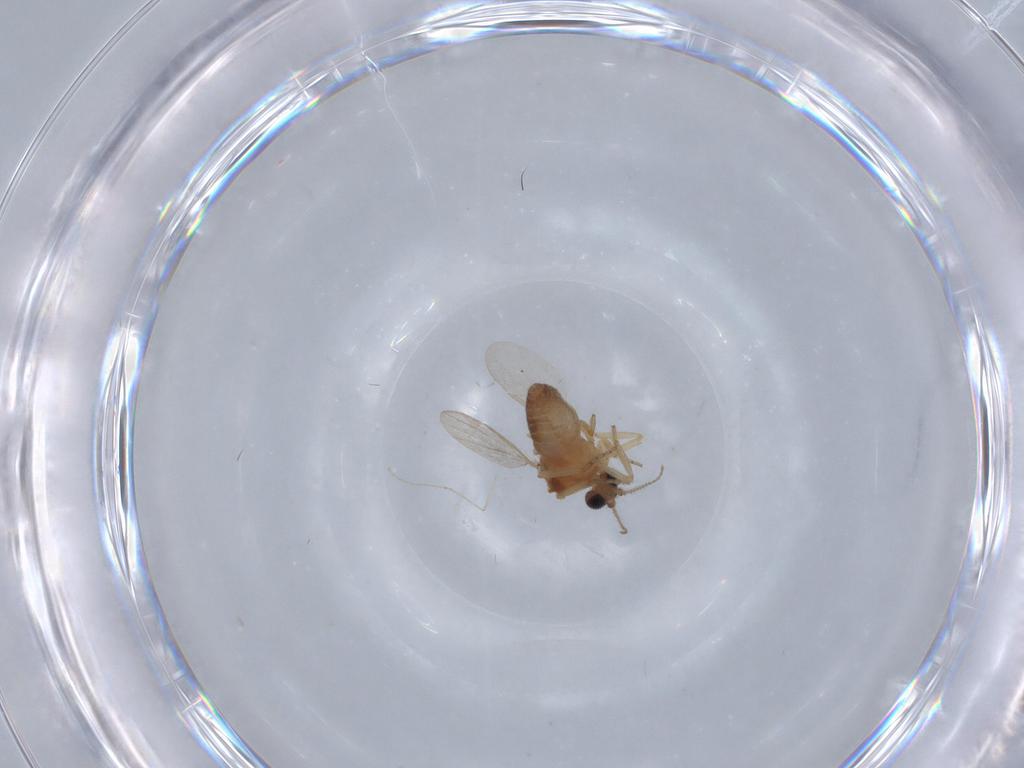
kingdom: Animalia
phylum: Arthropoda
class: Insecta
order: Diptera
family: Ceratopogonidae
